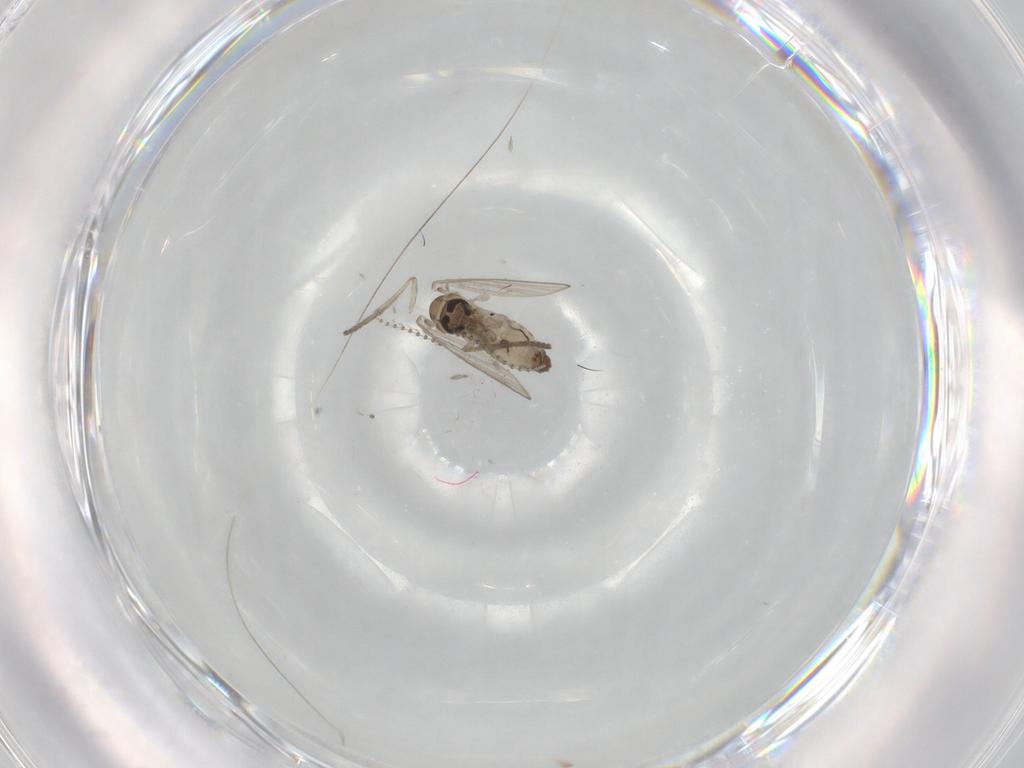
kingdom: Animalia
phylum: Arthropoda
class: Insecta
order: Diptera
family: Psychodidae
